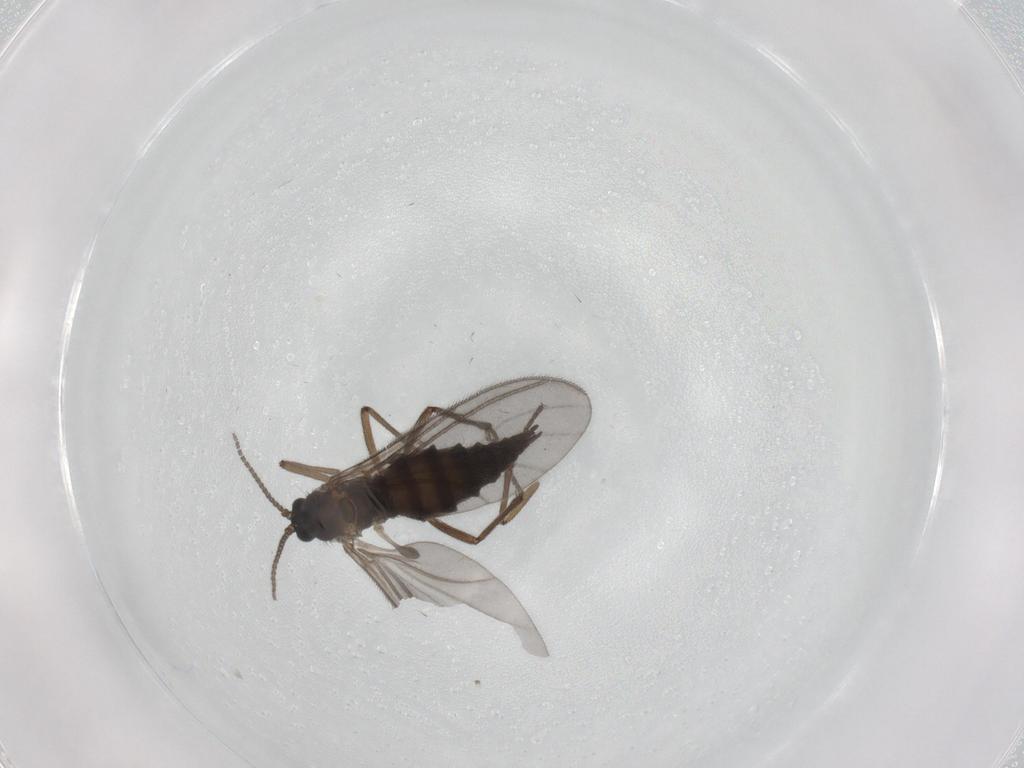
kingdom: Animalia
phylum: Arthropoda
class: Insecta
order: Diptera
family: Sciaridae
